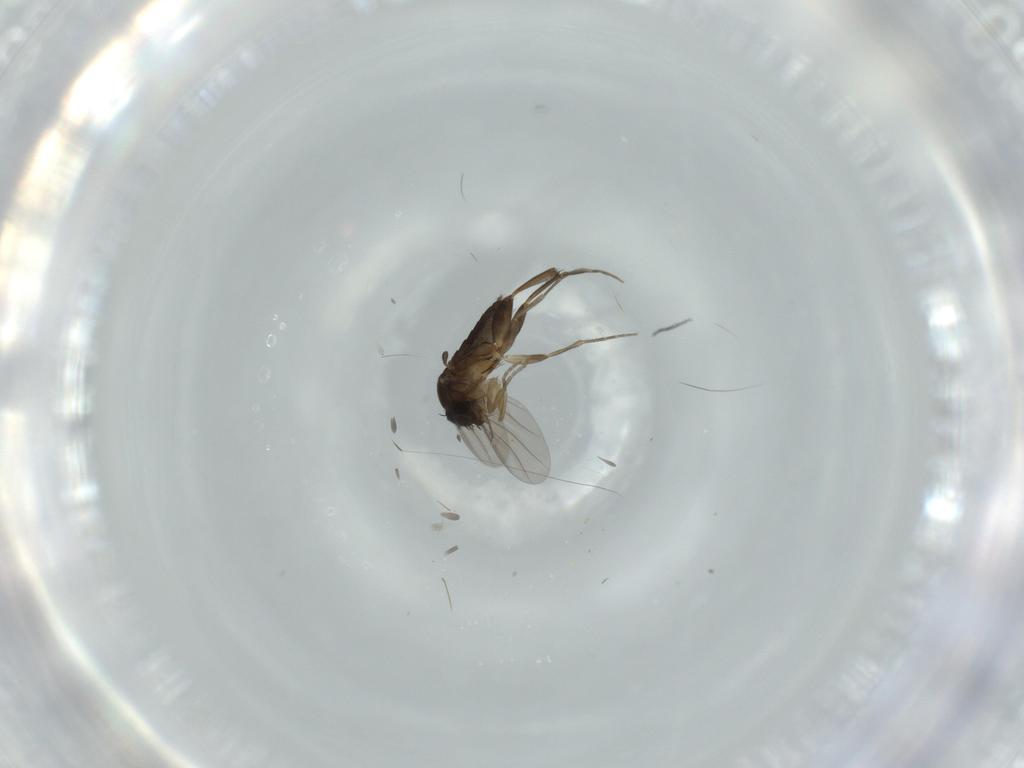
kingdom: Animalia
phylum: Arthropoda
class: Insecta
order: Diptera
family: Phoridae
